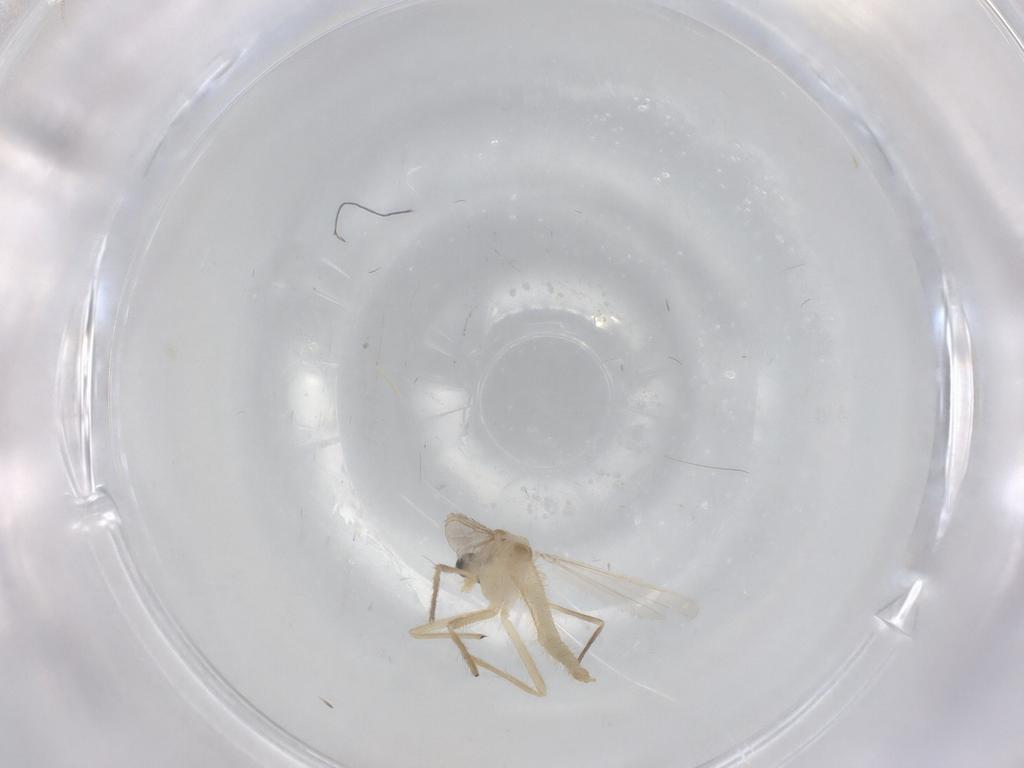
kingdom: Animalia
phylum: Arthropoda
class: Insecta
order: Diptera
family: Chironomidae
